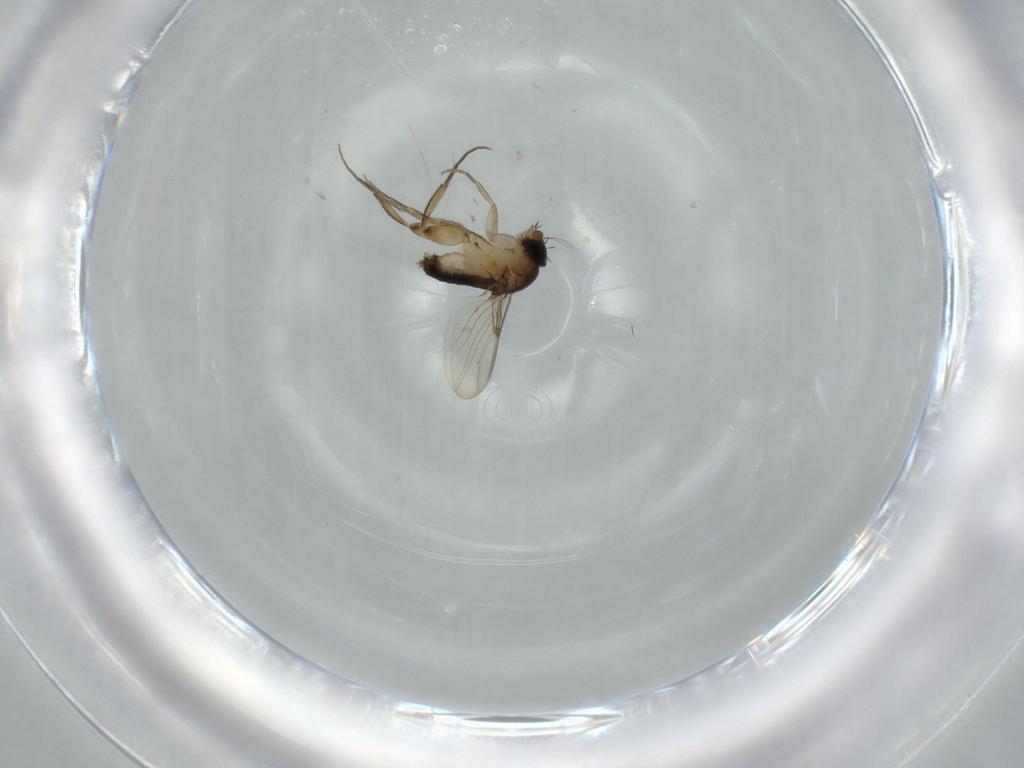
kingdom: Animalia
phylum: Arthropoda
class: Insecta
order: Diptera
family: Phoridae
